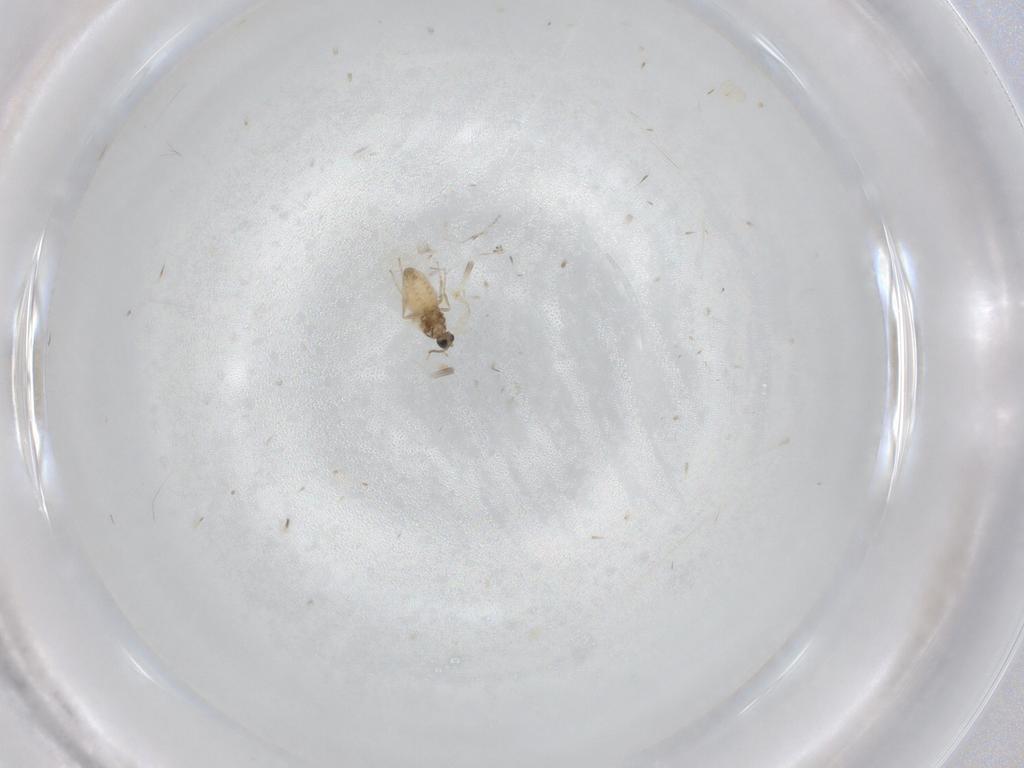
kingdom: Animalia
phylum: Arthropoda
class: Insecta
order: Diptera
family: Cecidomyiidae
